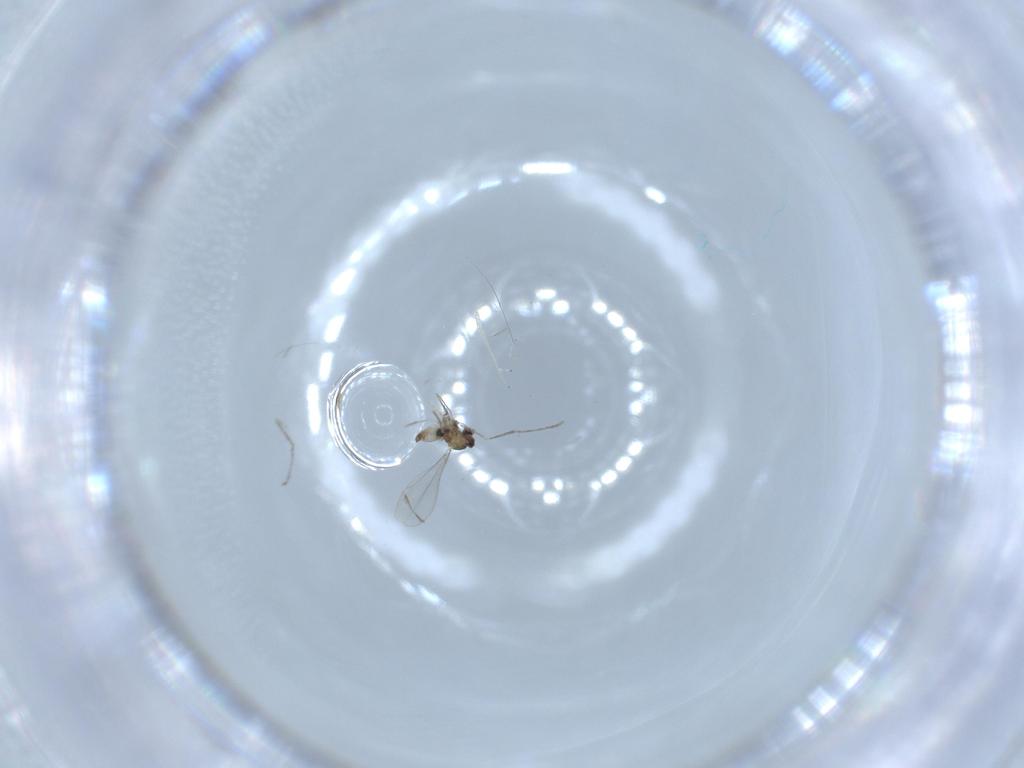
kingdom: Animalia
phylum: Arthropoda
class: Insecta
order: Diptera
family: Cecidomyiidae
